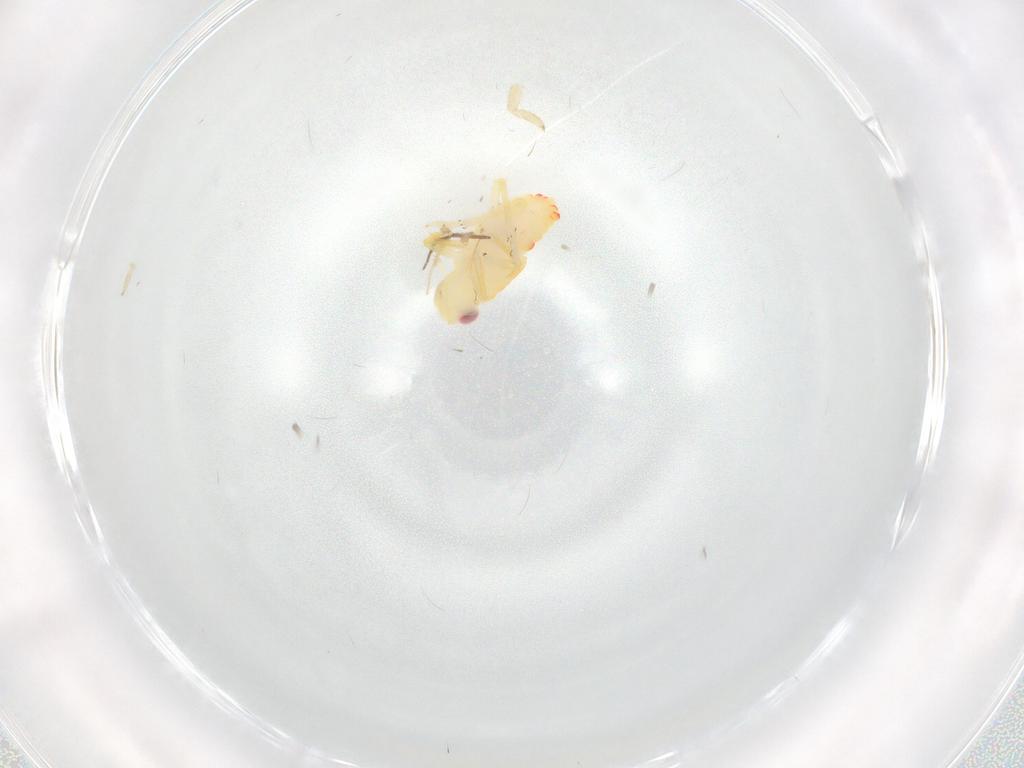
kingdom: Animalia
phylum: Arthropoda
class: Insecta
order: Hemiptera
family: Tropiduchidae
